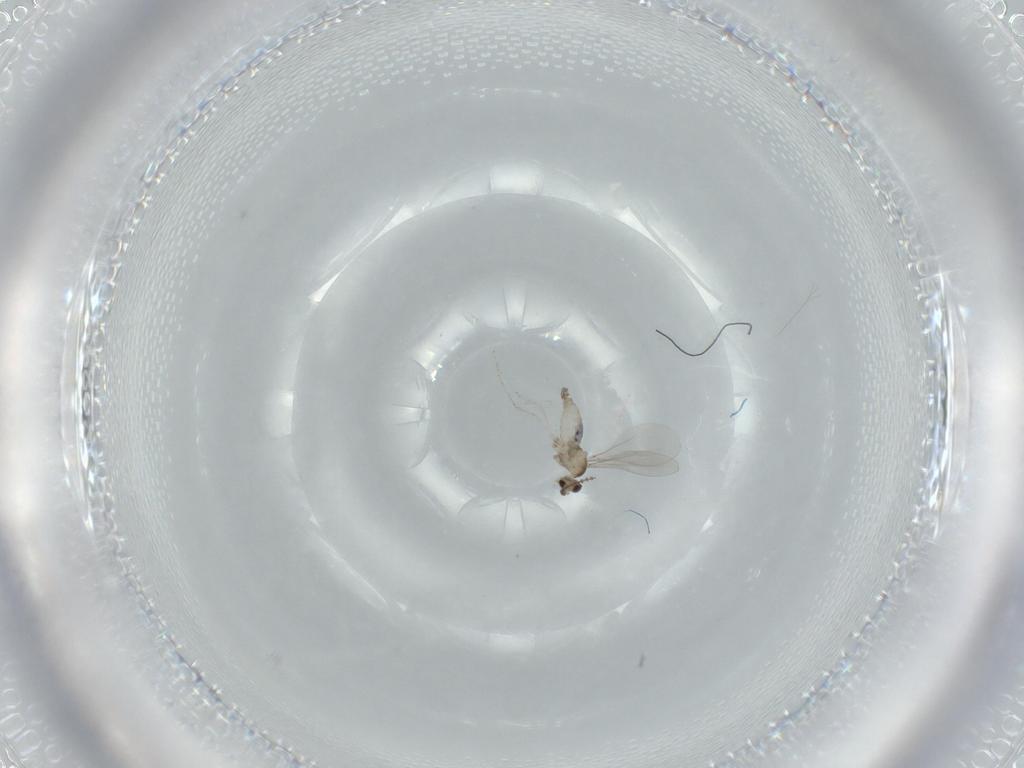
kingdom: Animalia
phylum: Arthropoda
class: Insecta
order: Diptera
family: Cecidomyiidae
